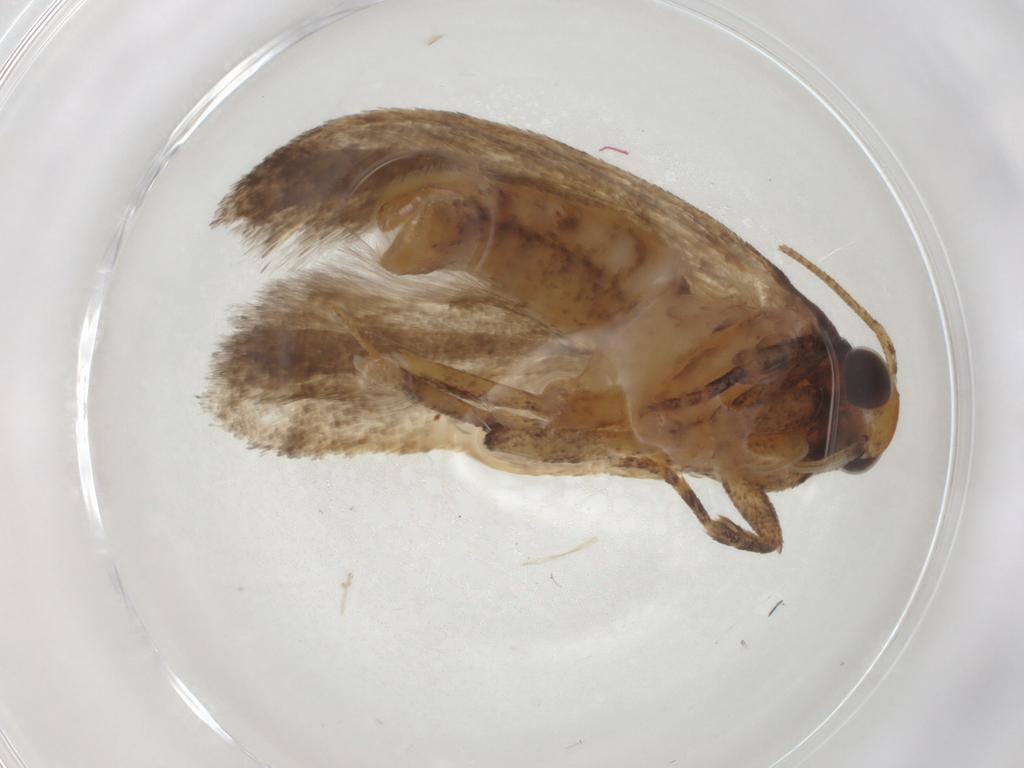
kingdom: Animalia
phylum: Arthropoda
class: Insecta
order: Lepidoptera
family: Gelechiidae
